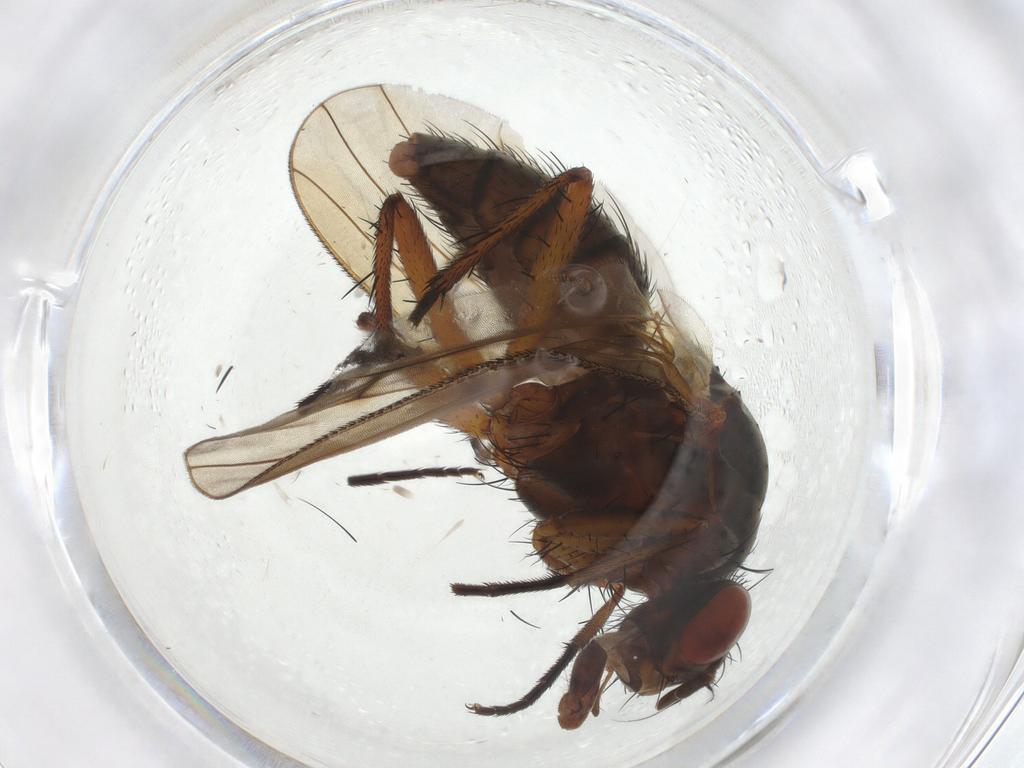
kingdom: Animalia
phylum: Arthropoda
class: Insecta
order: Diptera
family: Anthomyiidae
